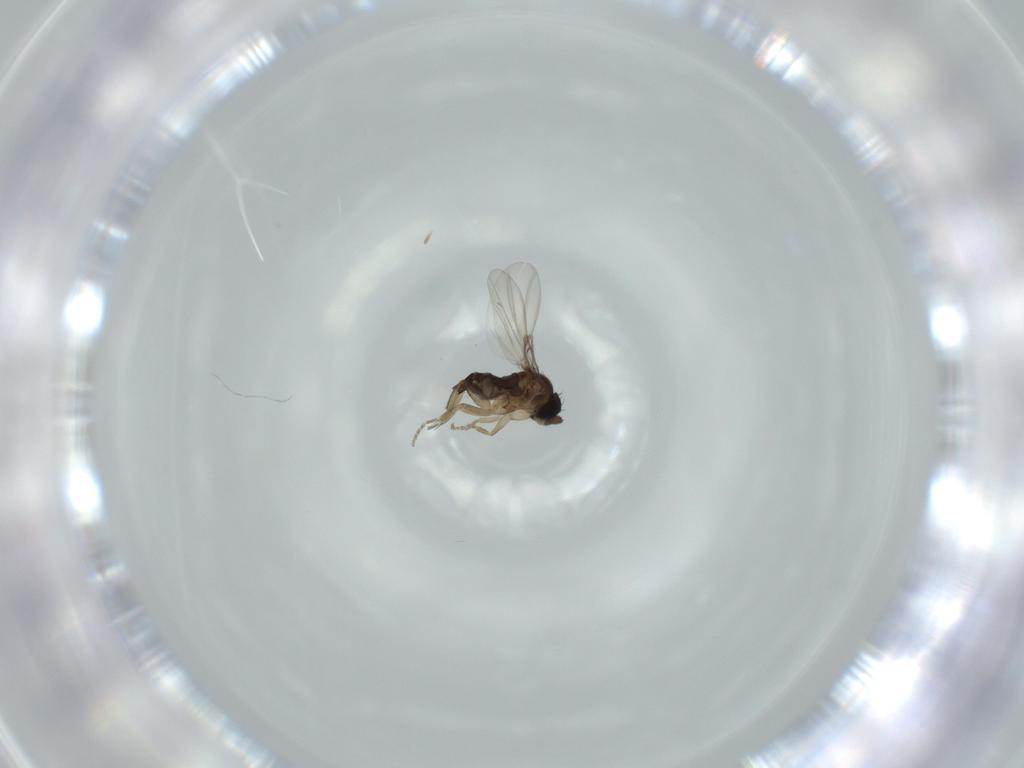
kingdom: Animalia
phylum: Arthropoda
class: Insecta
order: Diptera
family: Phoridae
